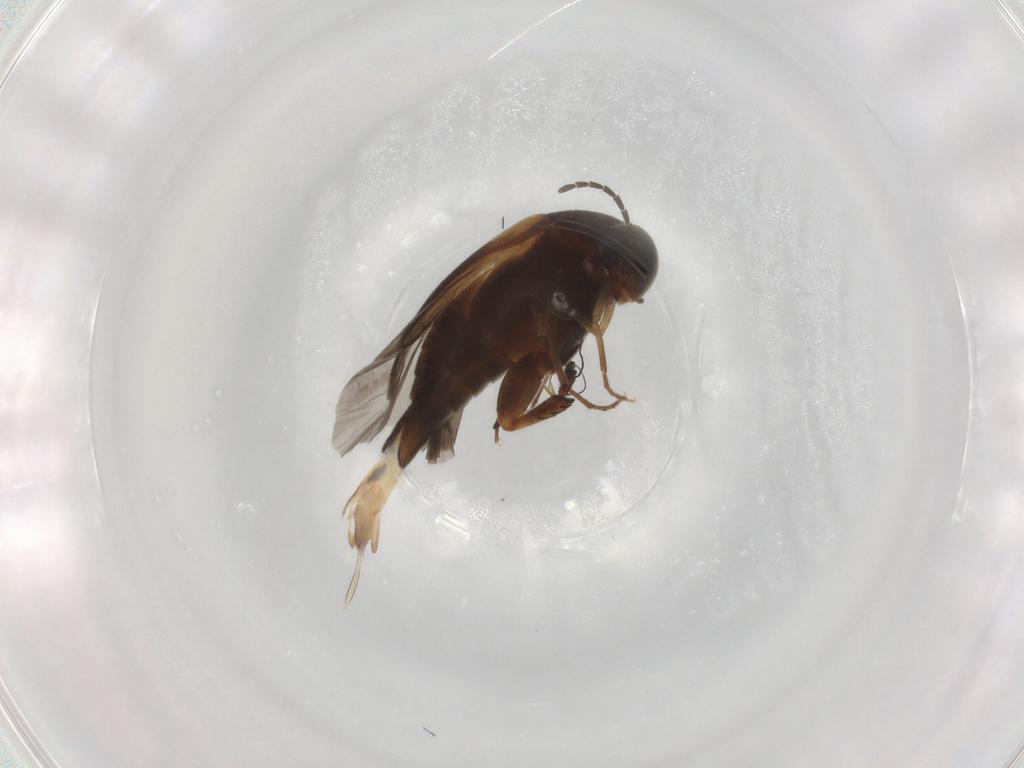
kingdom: Animalia
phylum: Arthropoda
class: Insecta
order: Coleoptera
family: Mordellidae
